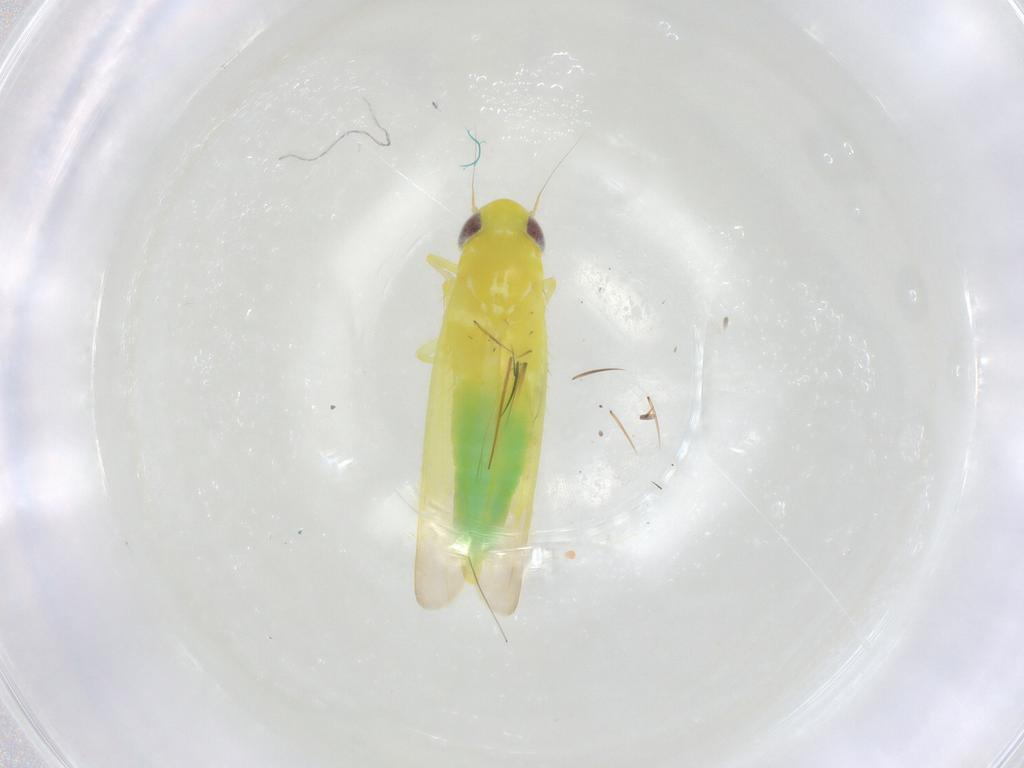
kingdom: Animalia
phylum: Arthropoda
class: Insecta
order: Hemiptera
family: Cicadellidae
